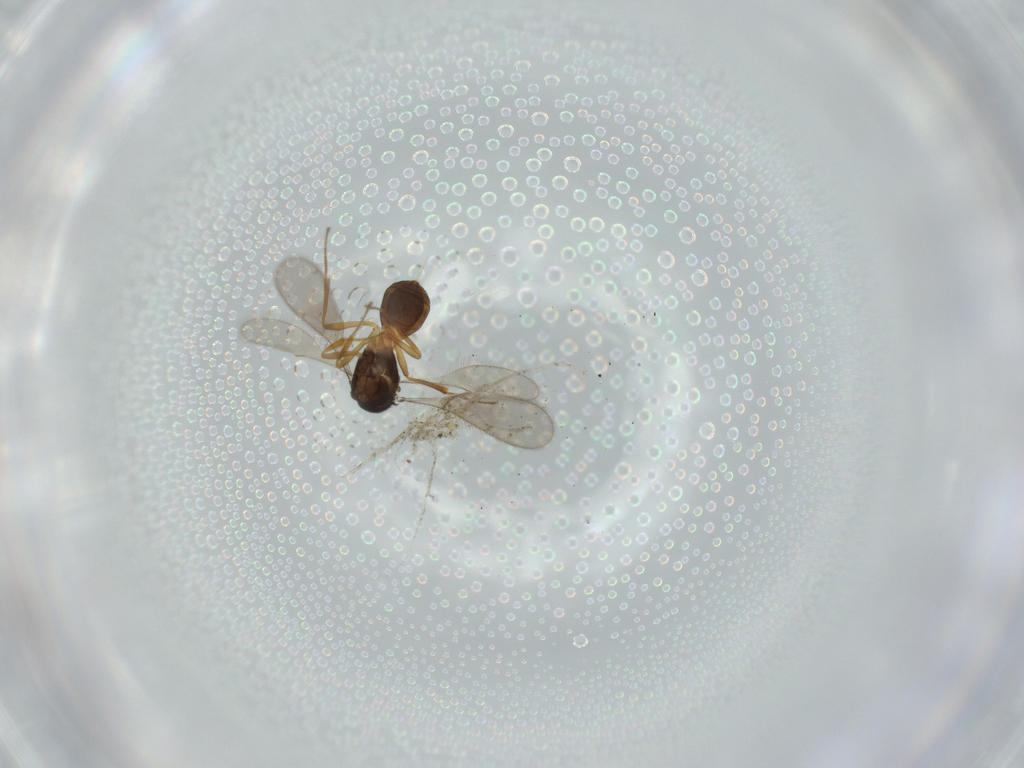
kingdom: Animalia
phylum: Arthropoda
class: Insecta
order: Hymenoptera
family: Scelionidae
